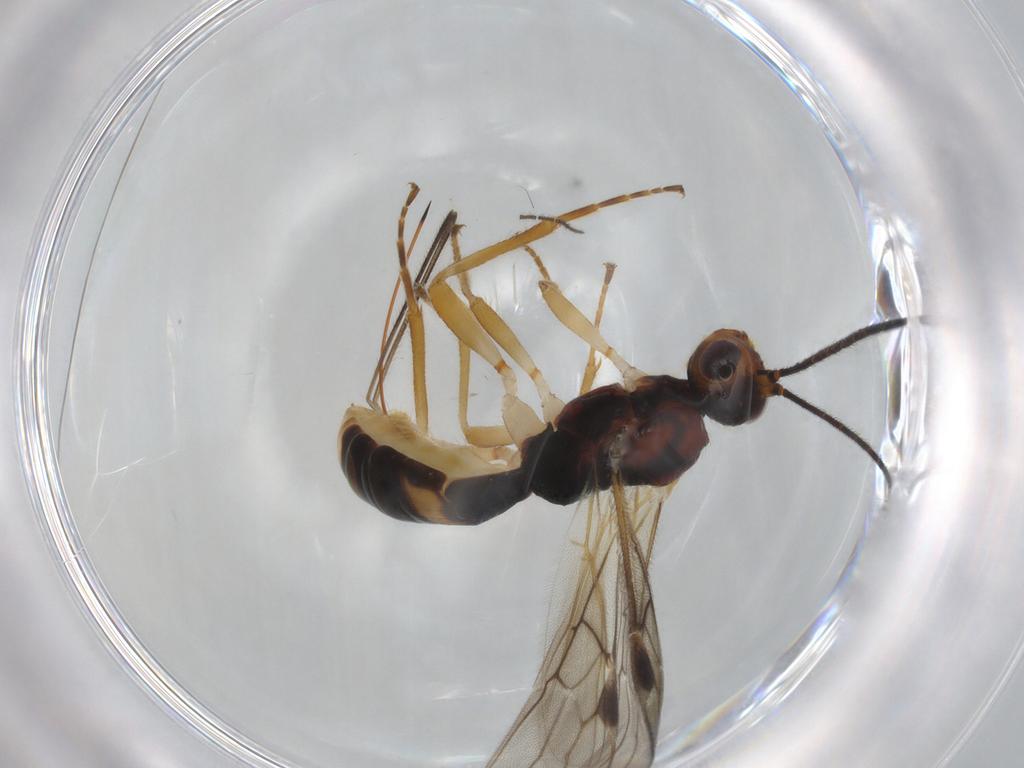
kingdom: Animalia
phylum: Arthropoda
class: Insecta
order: Hymenoptera
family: Braconidae
